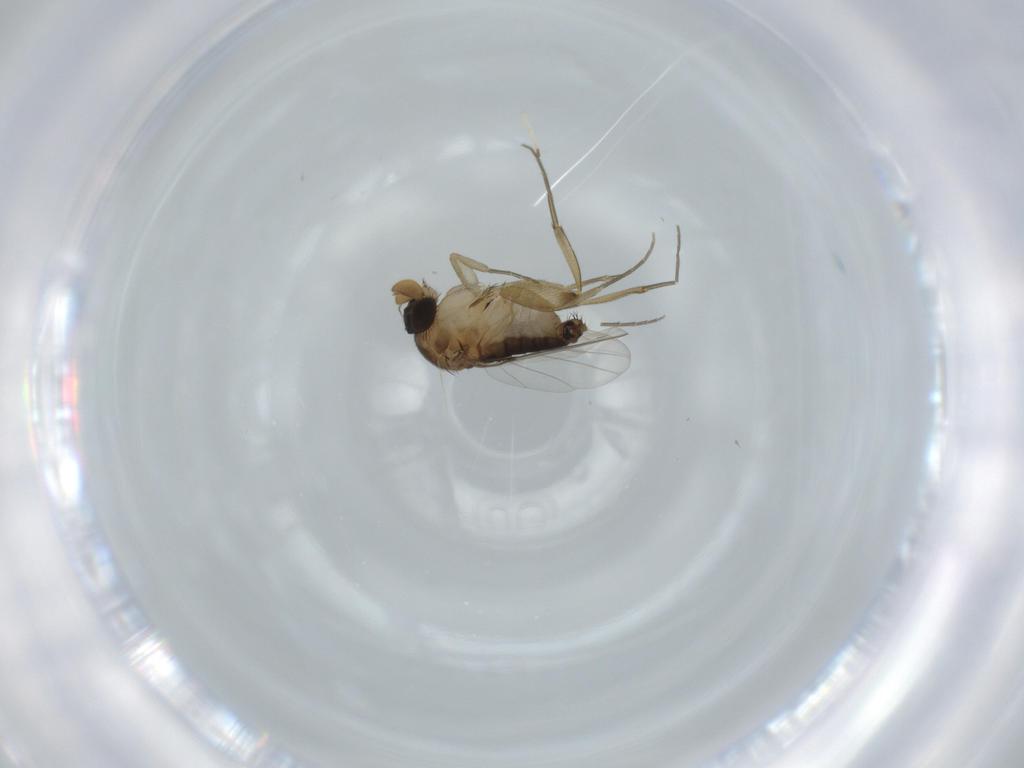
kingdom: Animalia
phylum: Arthropoda
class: Insecta
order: Diptera
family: Phoridae
